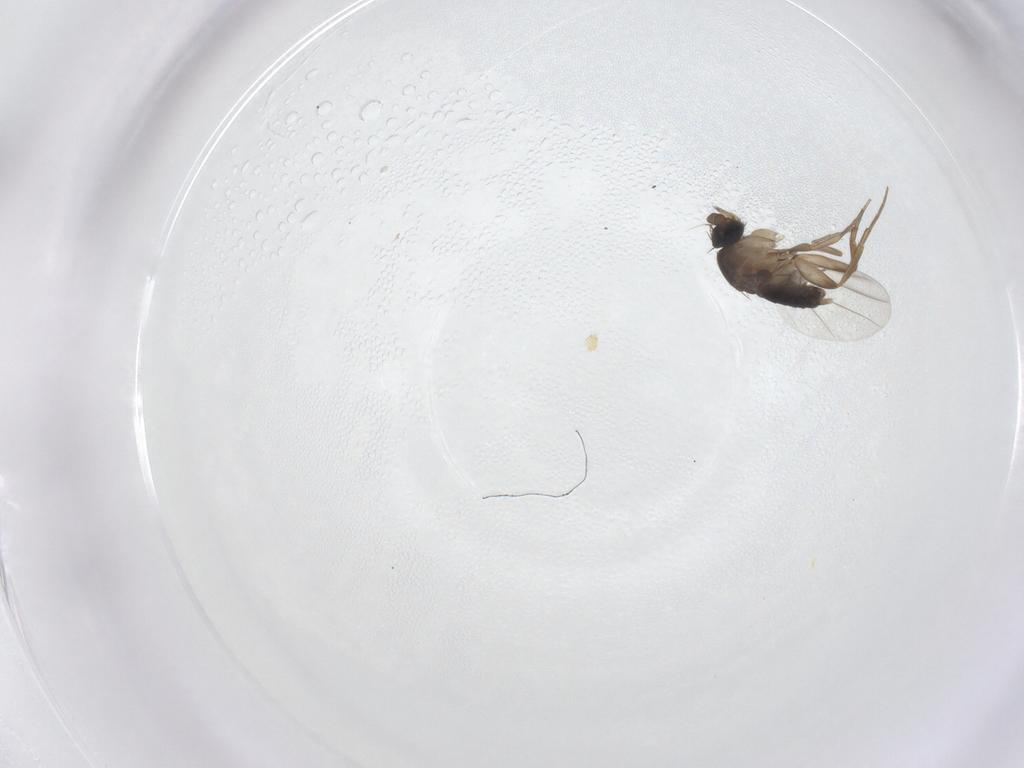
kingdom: Animalia
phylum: Arthropoda
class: Insecta
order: Diptera
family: Phoridae
